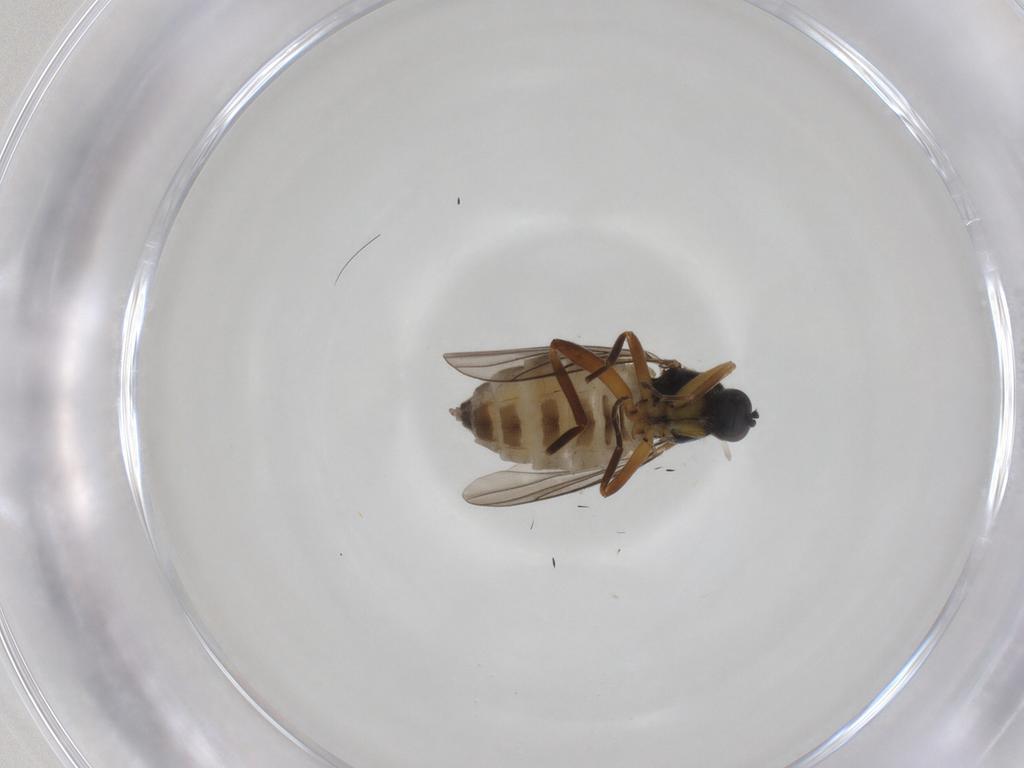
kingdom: Animalia
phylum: Arthropoda
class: Insecta
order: Diptera
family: Hybotidae
